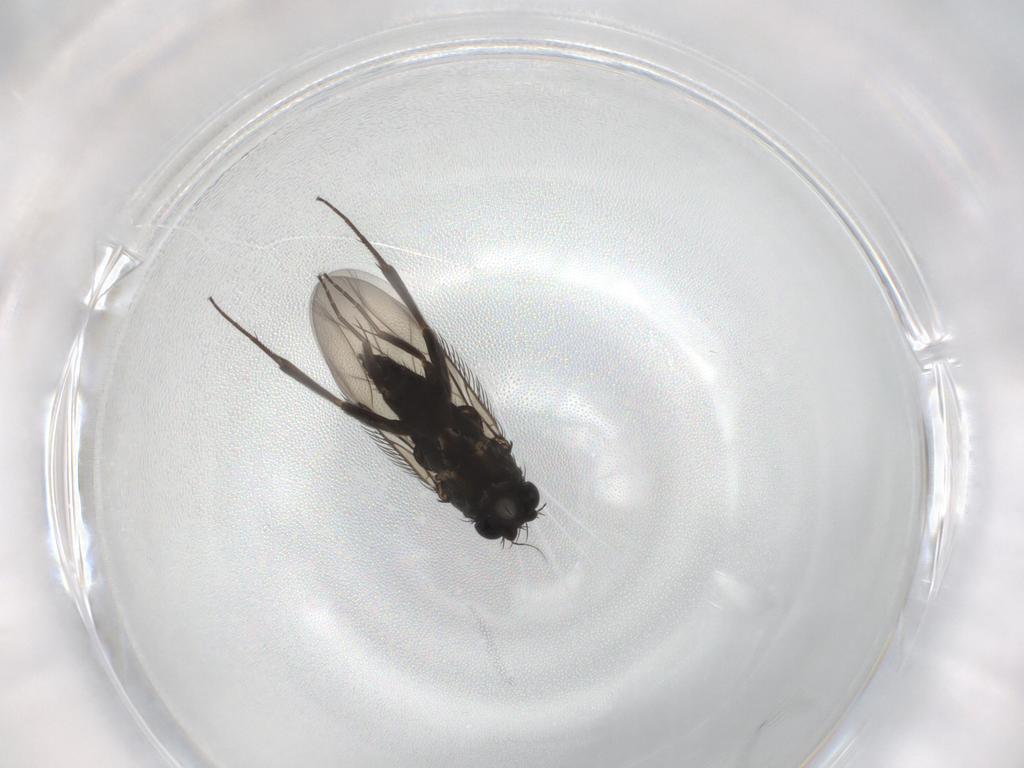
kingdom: Animalia
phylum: Arthropoda
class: Insecta
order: Diptera
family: Phoridae
